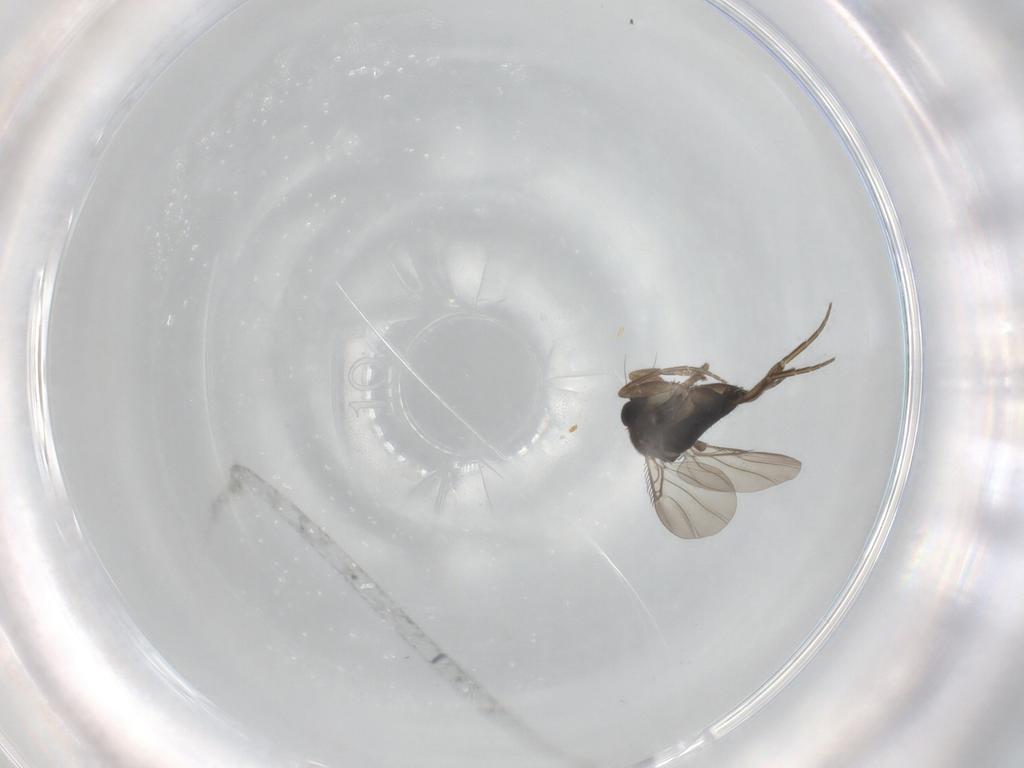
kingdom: Animalia
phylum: Arthropoda
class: Insecta
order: Diptera
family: Phoridae
